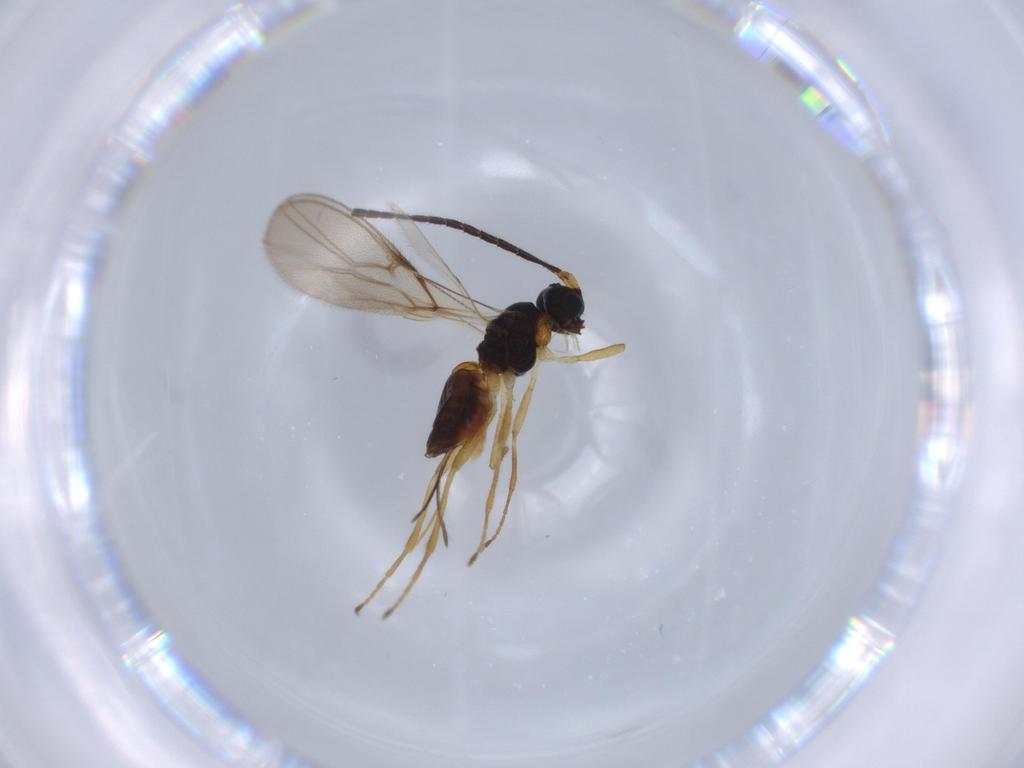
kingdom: Animalia
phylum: Arthropoda
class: Insecta
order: Hymenoptera
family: Braconidae
